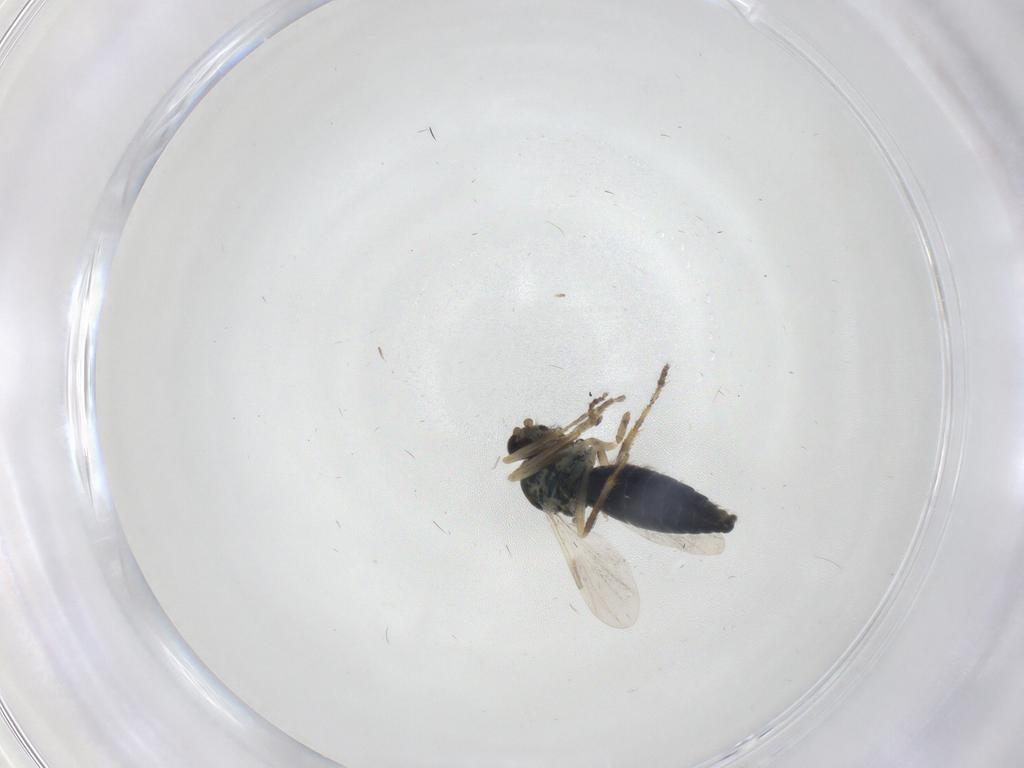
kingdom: Animalia
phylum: Arthropoda
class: Insecta
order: Diptera
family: Ceratopogonidae
